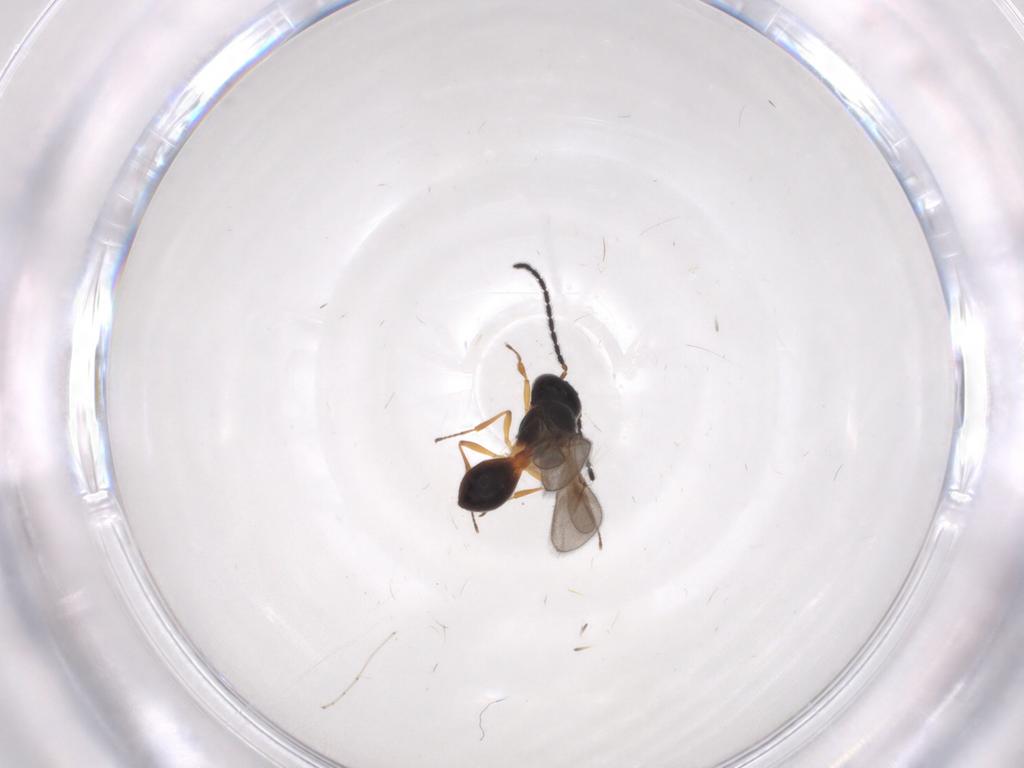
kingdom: Animalia
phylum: Arthropoda
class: Insecta
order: Hymenoptera
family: Scelionidae
